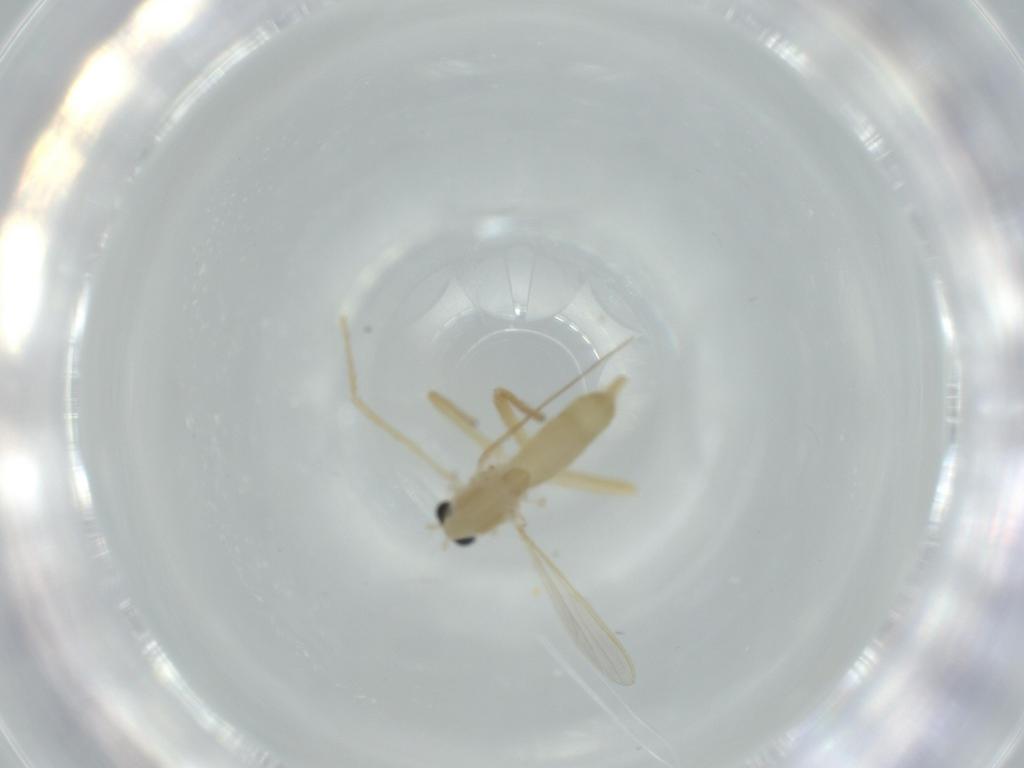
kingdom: Animalia
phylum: Arthropoda
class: Insecta
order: Diptera
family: Chironomidae
